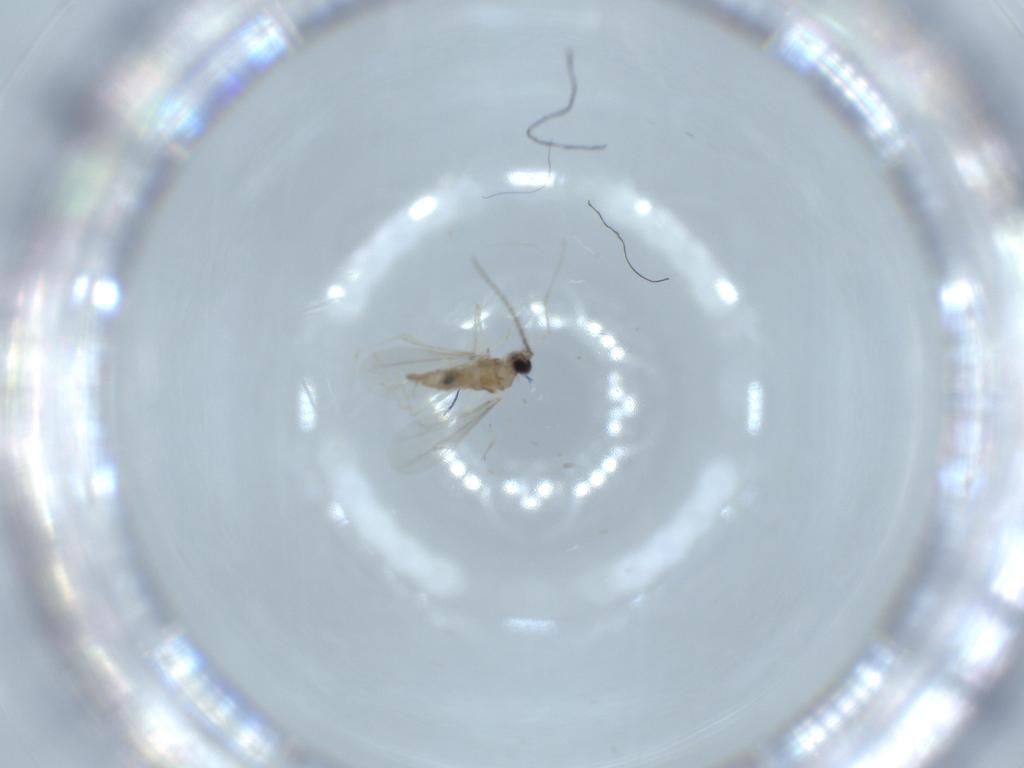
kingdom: Animalia
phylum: Arthropoda
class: Insecta
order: Diptera
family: Cecidomyiidae
